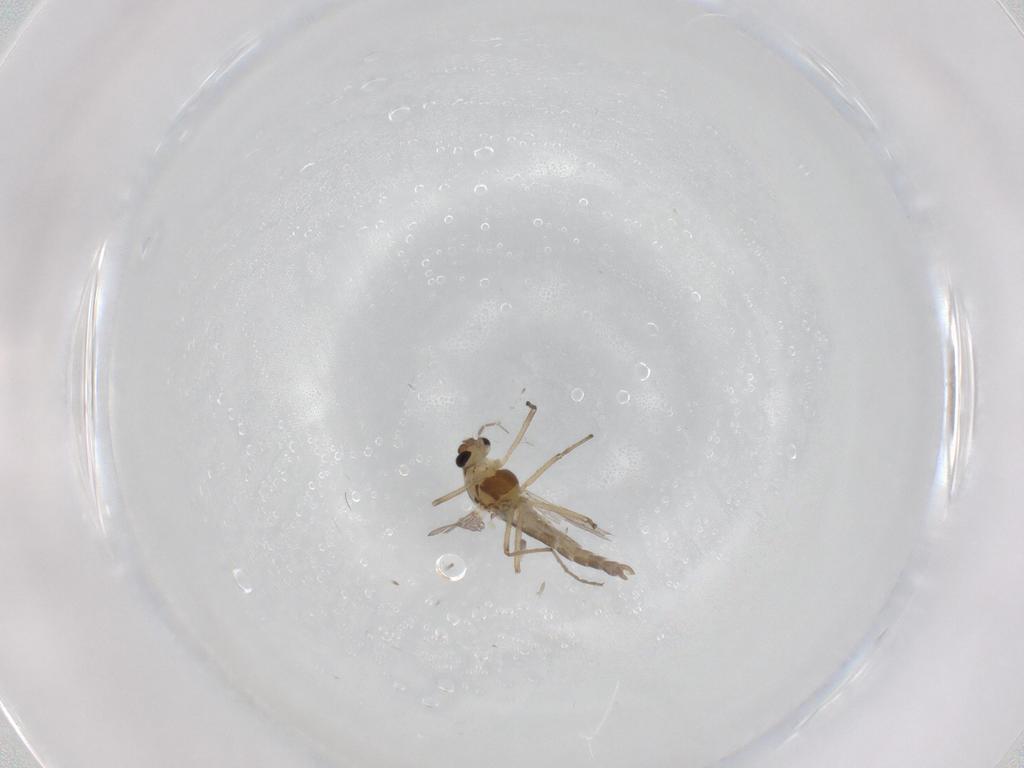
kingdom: Animalia
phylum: Arthropoda
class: Insecta
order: Diptera
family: Chironomidae
